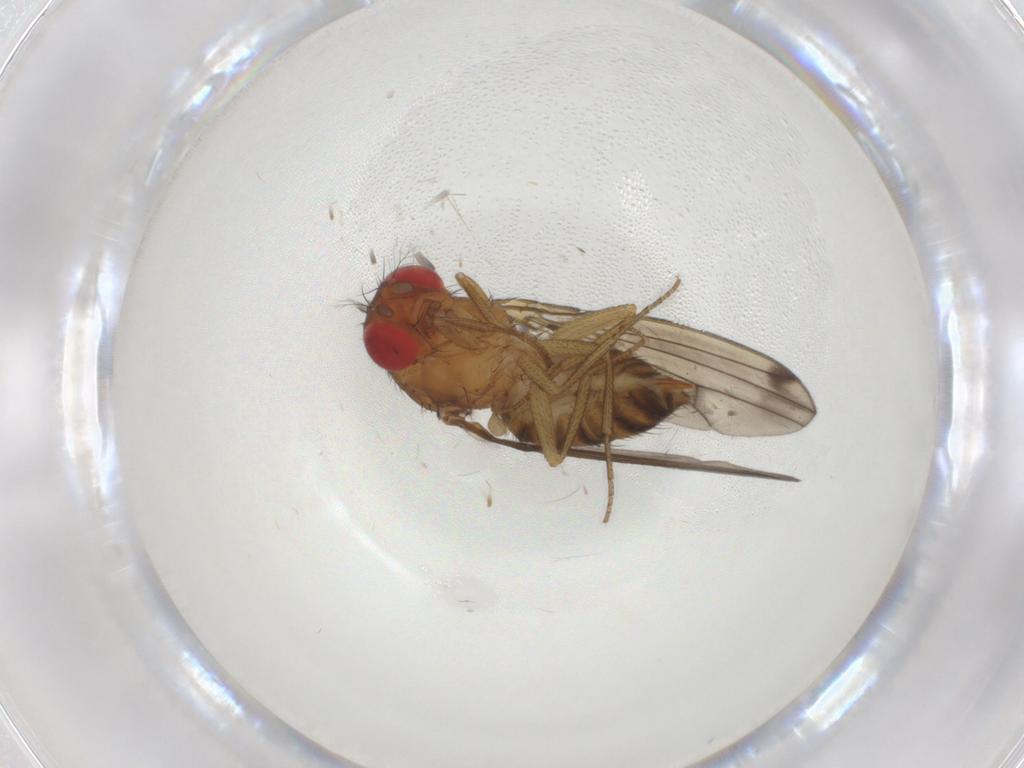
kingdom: Animalia
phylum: Arthropoda
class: Insecta
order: Diptera
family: Drosophilidae
